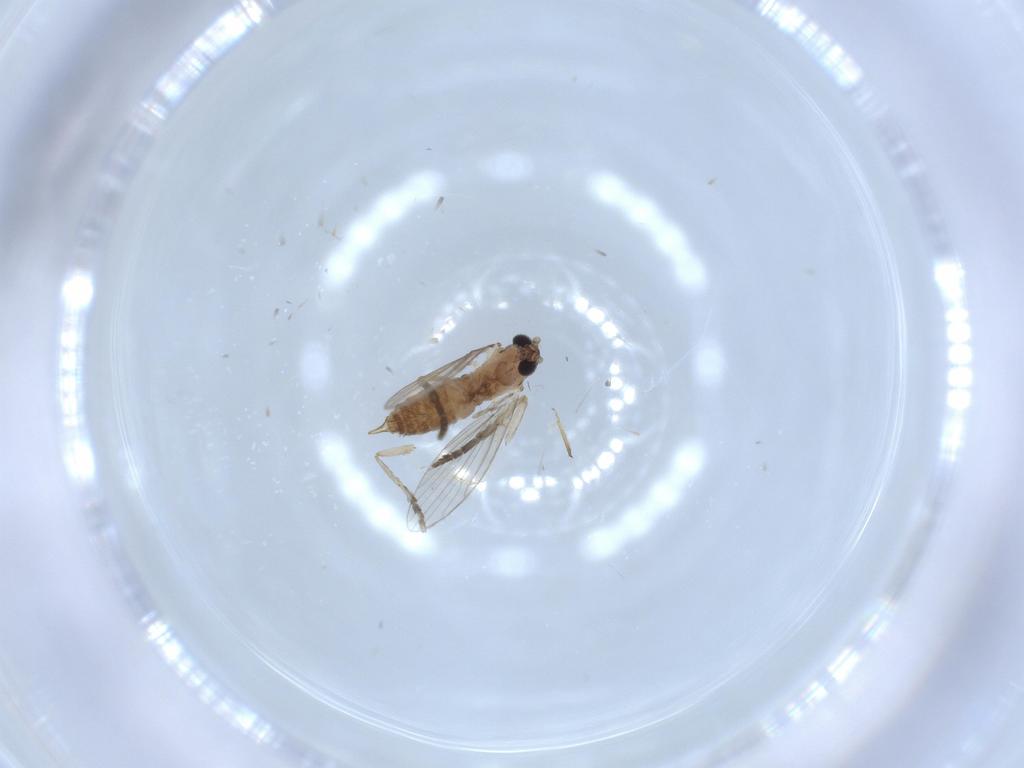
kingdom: Animalia
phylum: Arthropoda
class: Insecta
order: Diptera
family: Psychodidae
